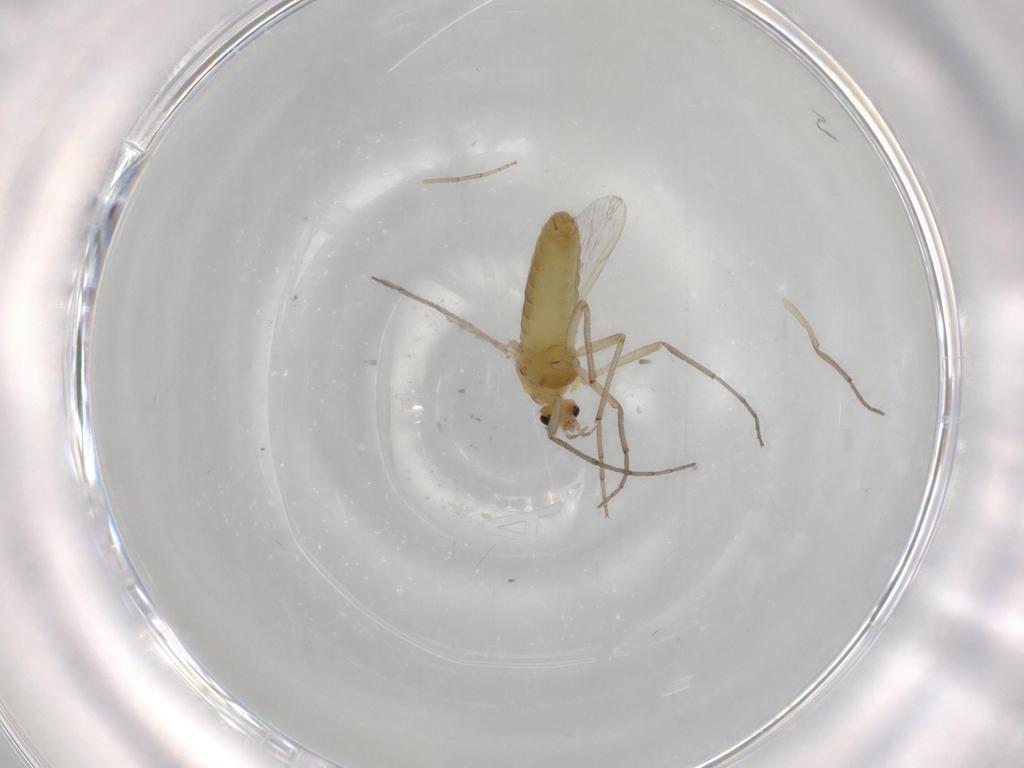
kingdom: Animalia
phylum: Arthropoda
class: Insecta
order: Diptera
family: Chironomidae
